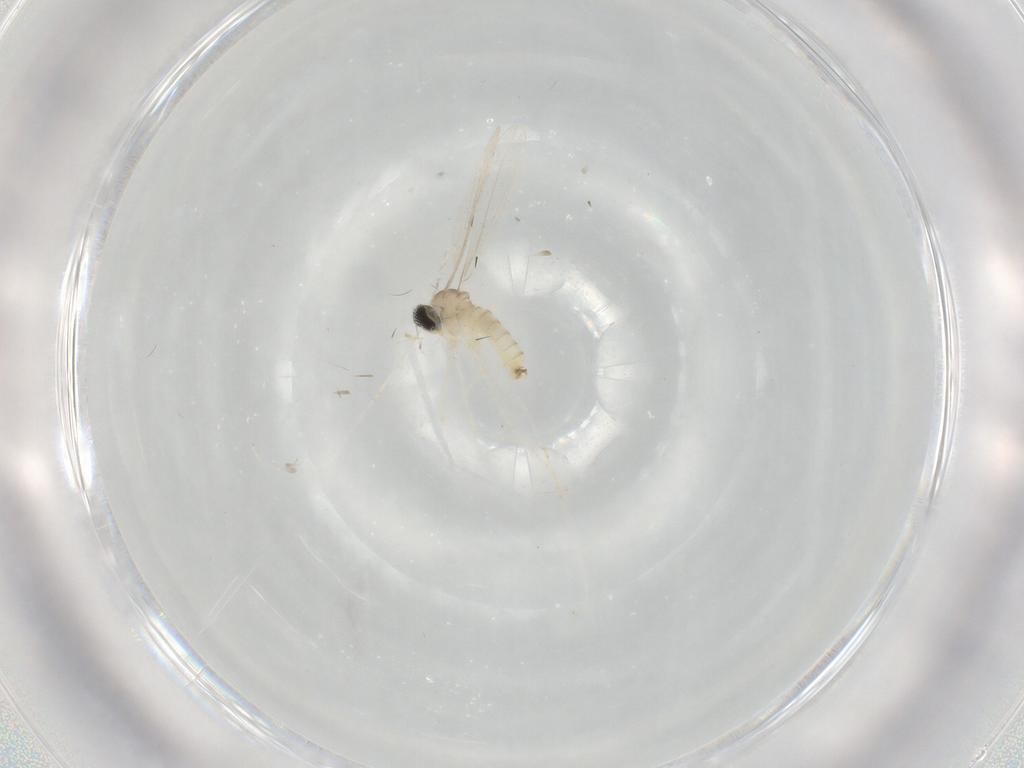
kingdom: Animalia
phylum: Arthropoda
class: Insecta
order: Diptera
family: Cecidomyiidae
